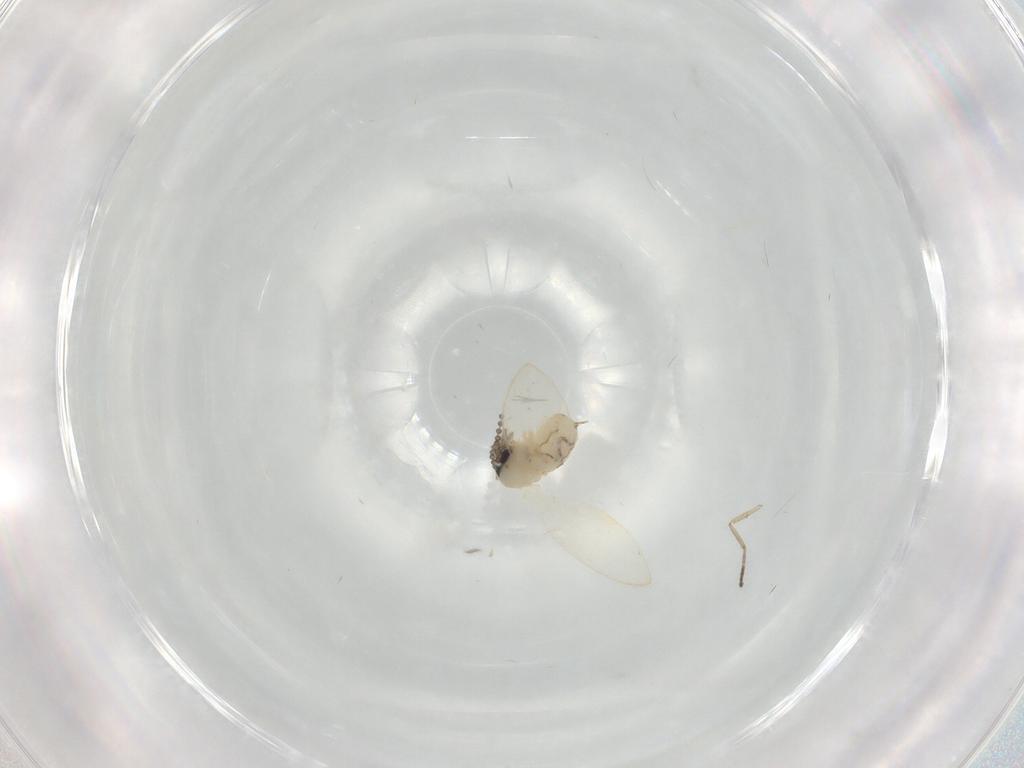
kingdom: Animalia
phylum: Arthropoda
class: Insecta
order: Diptera
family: Psychodidae
